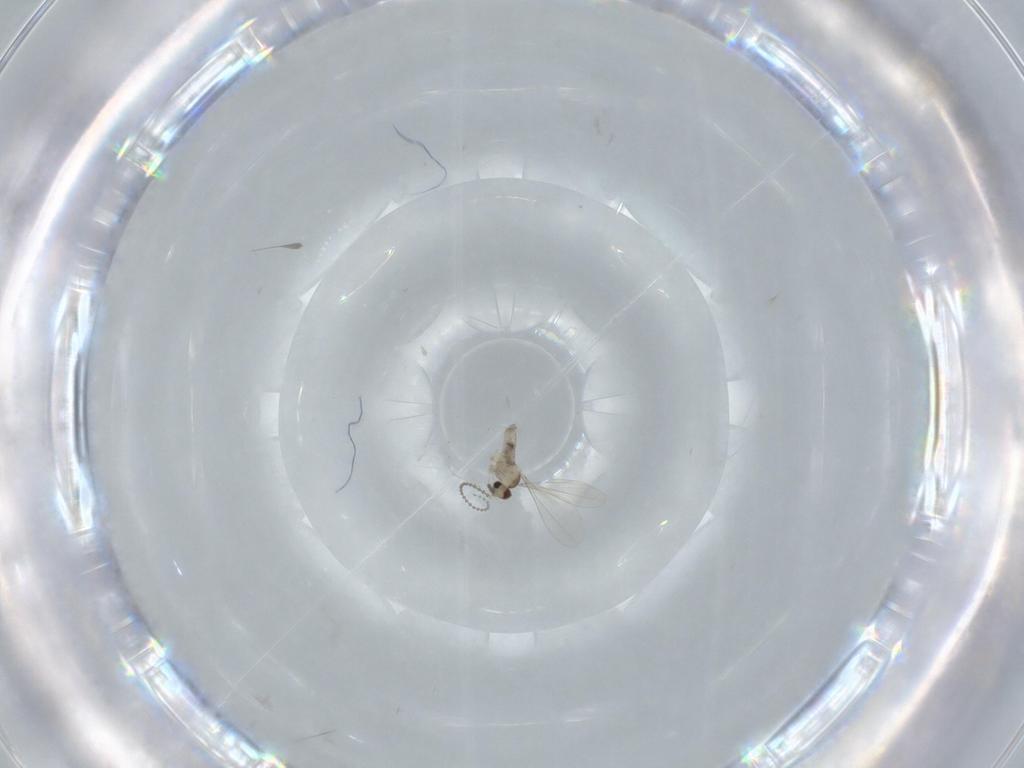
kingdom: Animalia
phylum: Arthropoda
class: Insecta
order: Diptera
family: Cecidomyiidae
